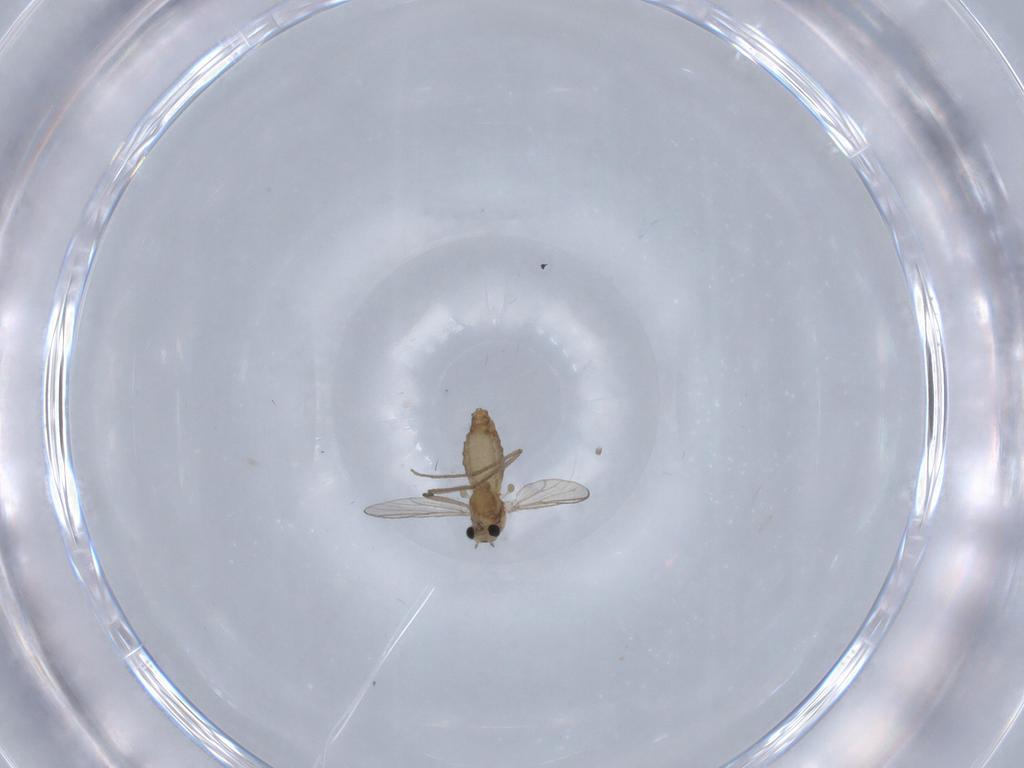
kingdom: Animalia
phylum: Arthropoda
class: Insecta
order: Diptera
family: Chironomidae
